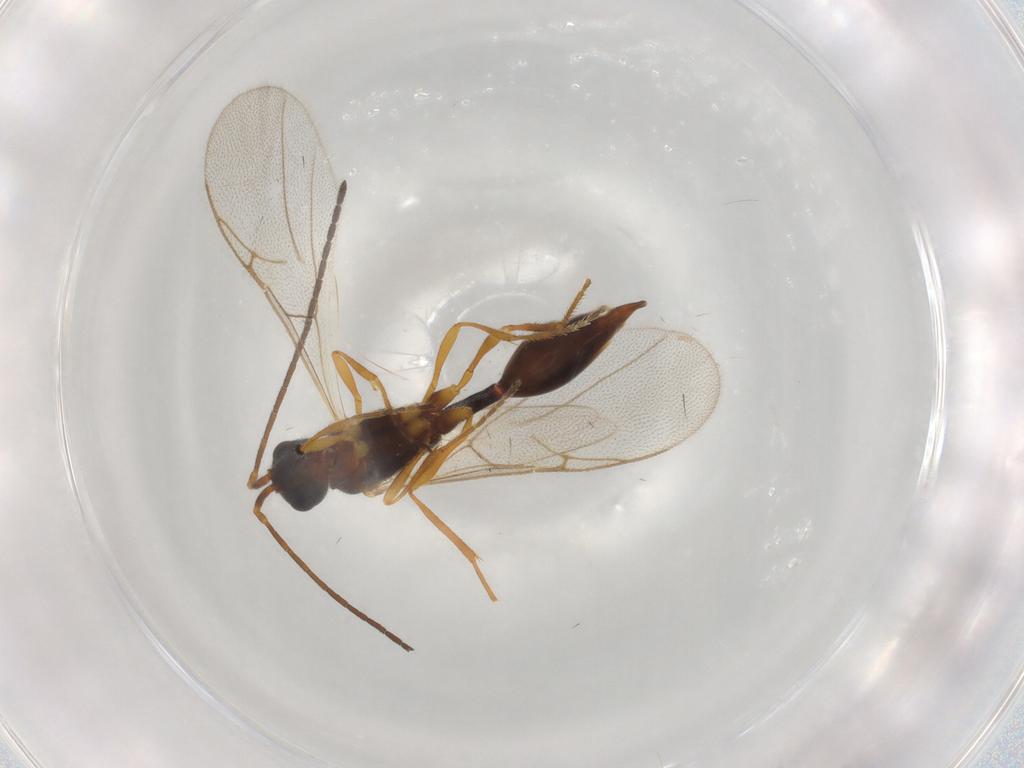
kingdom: Animalia
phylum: Arthropoda
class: Insecta
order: Hymenoptera
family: Diapriidae
